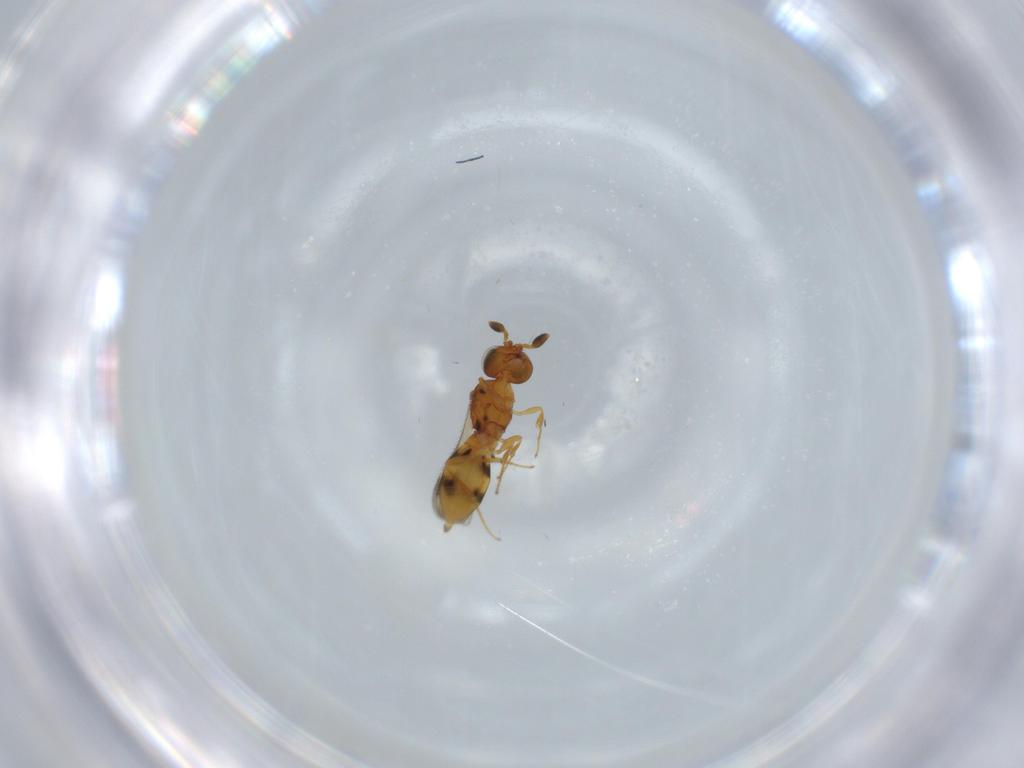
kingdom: Animalia
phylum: Arthropoda
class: Insecta
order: Hymenoptera
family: Scelionidae
